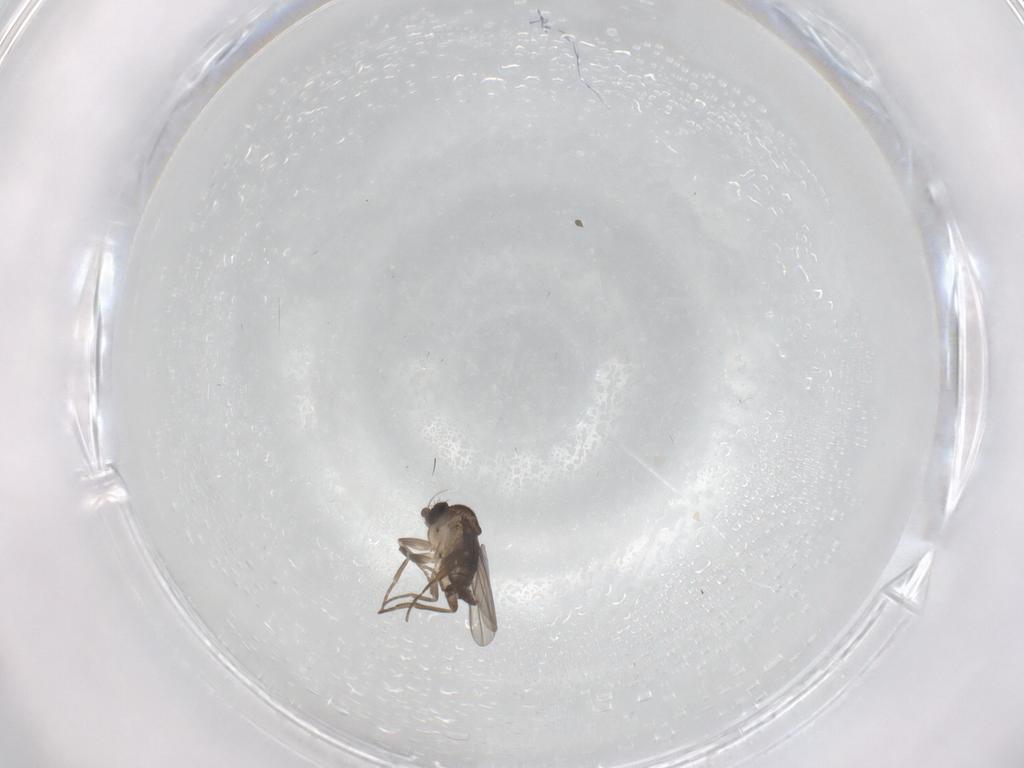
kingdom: Animalia
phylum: Arthropoda
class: Insecta
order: Diptera
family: Phoridae
